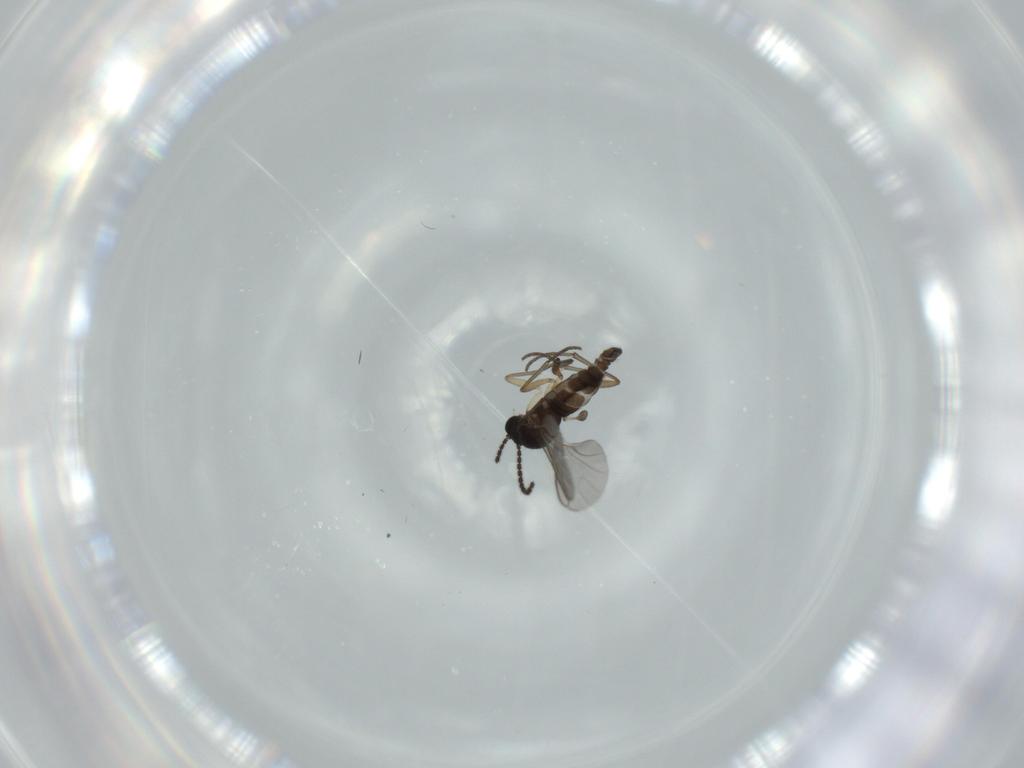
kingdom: Animalia
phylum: Arthropoda
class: Insecta
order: Diptera
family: Sciaridae
